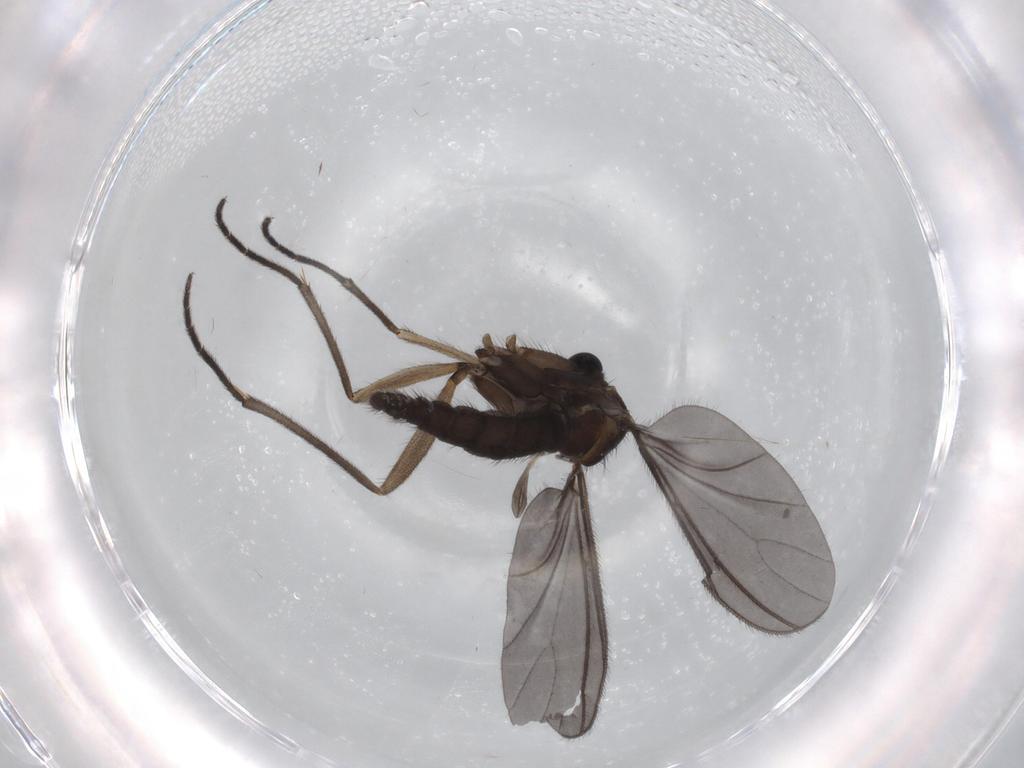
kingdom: Animalia
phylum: Arthropoda
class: Insecta
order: Diptera
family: Sciaridae
